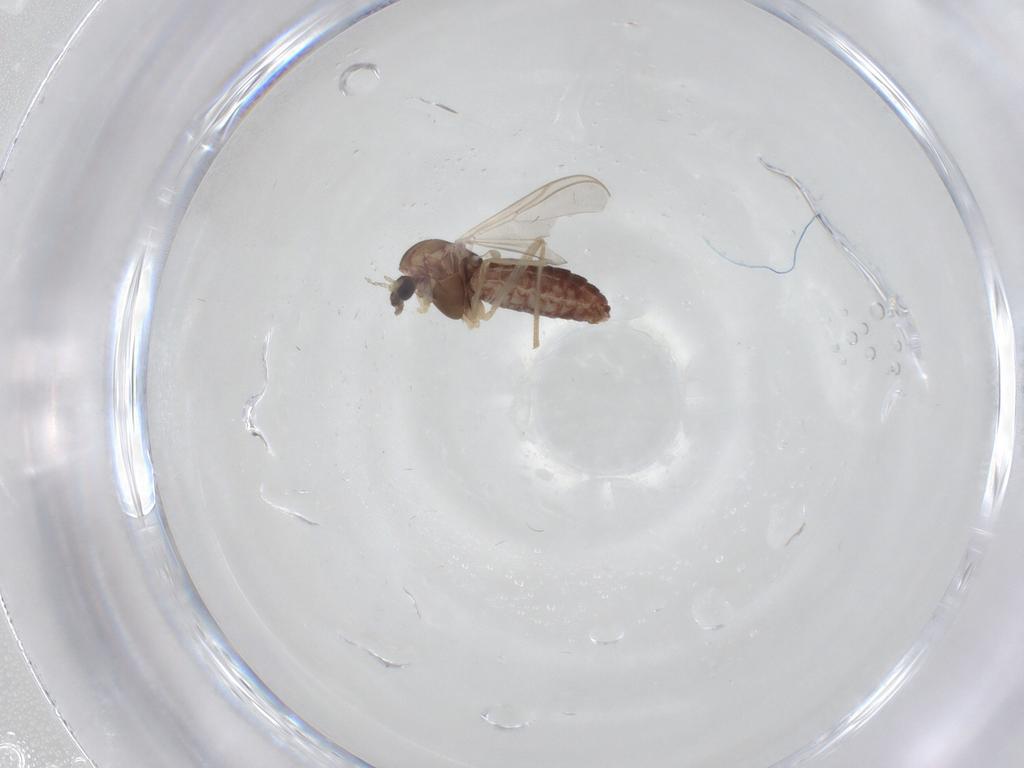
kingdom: Animalia
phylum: Arthropoda
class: Insecta
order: Diptera
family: Chironomidae
